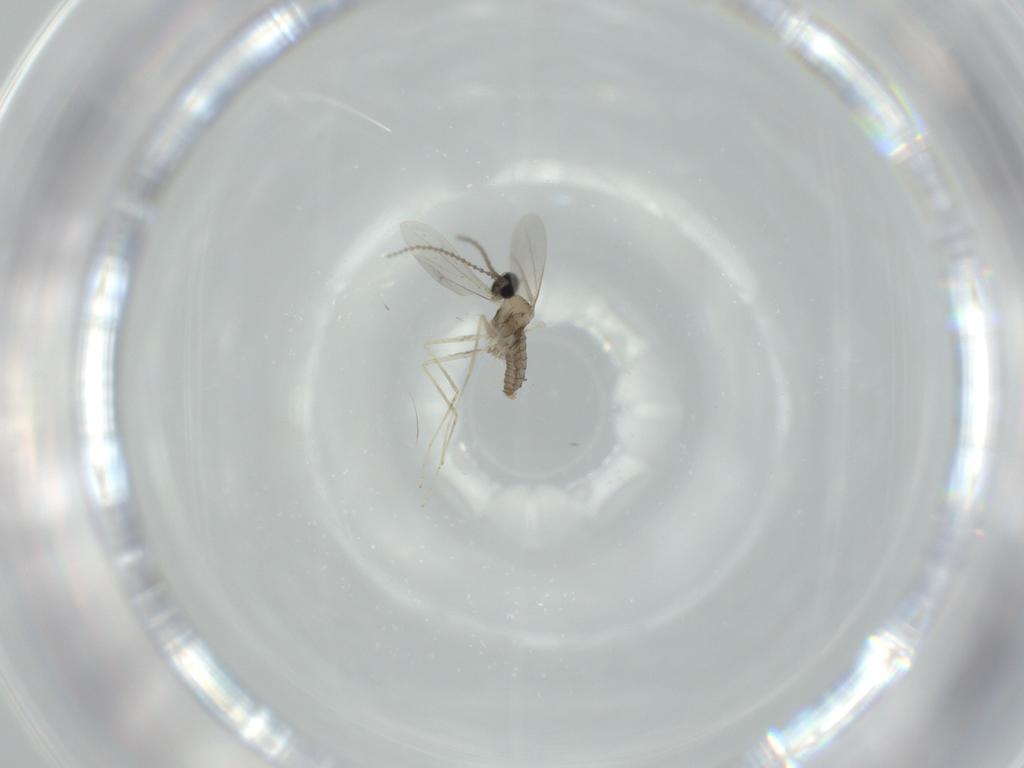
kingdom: Animalia
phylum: Arthropoda
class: Insecta
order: Diptera
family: Cecidomyiidae
